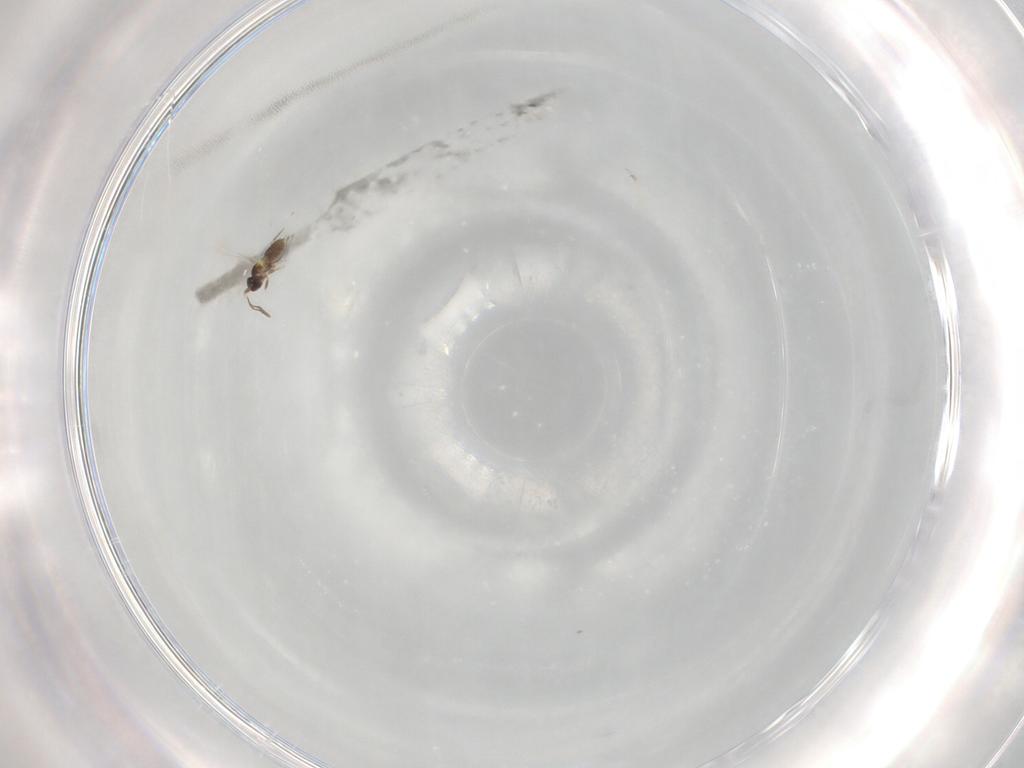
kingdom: Animalia
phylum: Arthropoda
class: Insecta
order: Hymenoptera
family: Mymaridae
